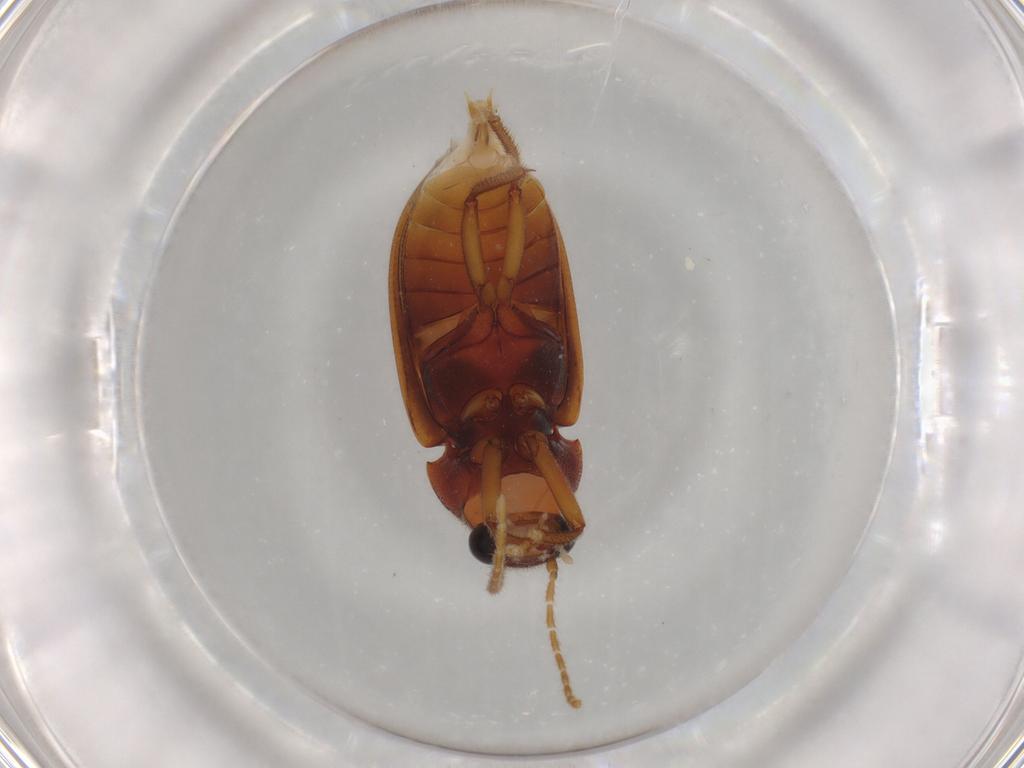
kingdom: Animalia
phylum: Arthropoda
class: Insecta
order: Coleoptera
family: Ptilodactylidae
